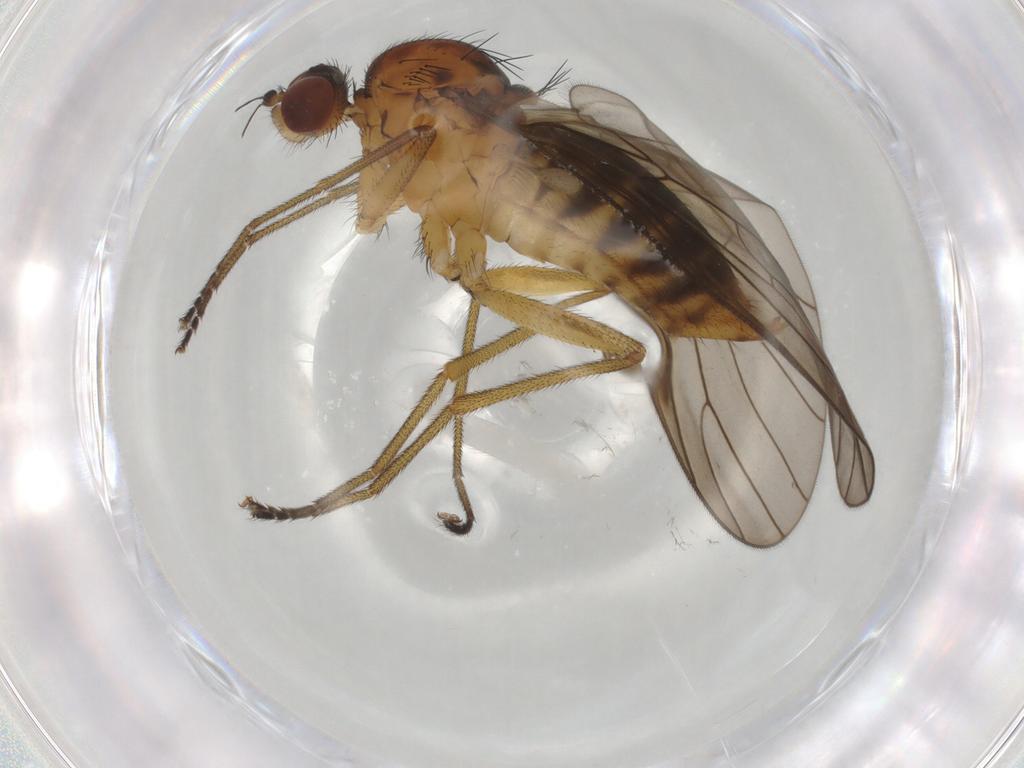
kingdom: Animalia
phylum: Arthropoda
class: Insecta
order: Diptera
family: Brachystomatidae
